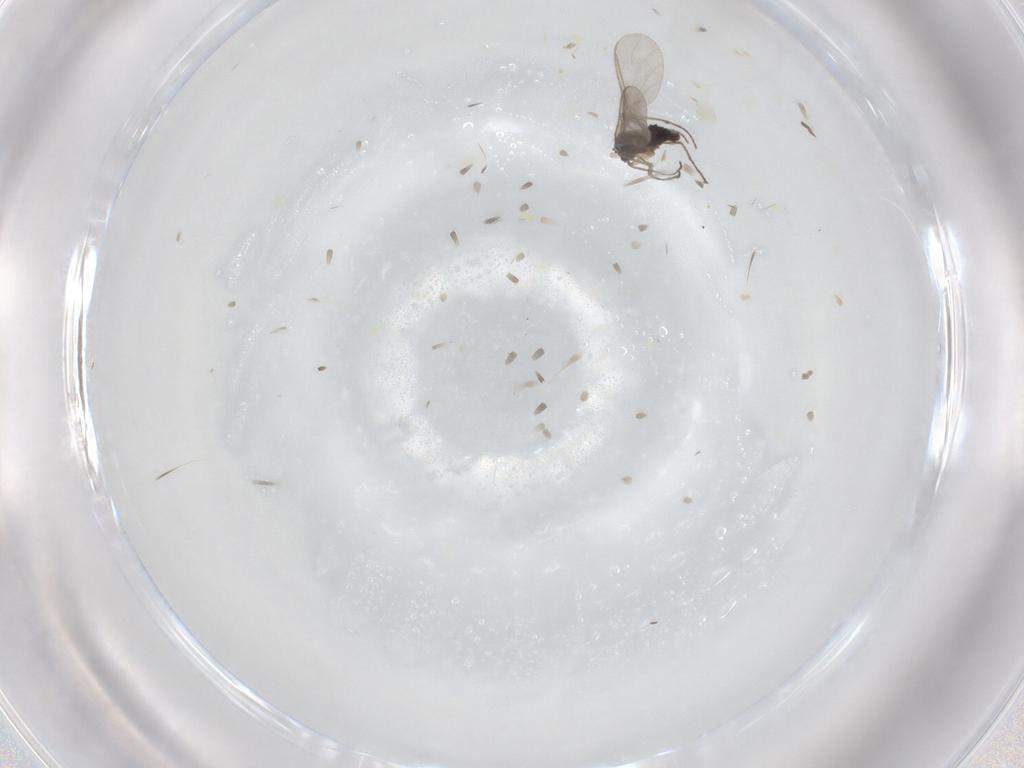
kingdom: Animalia
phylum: Arthropoda
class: Insecta
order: Diptera
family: Sciaridae
